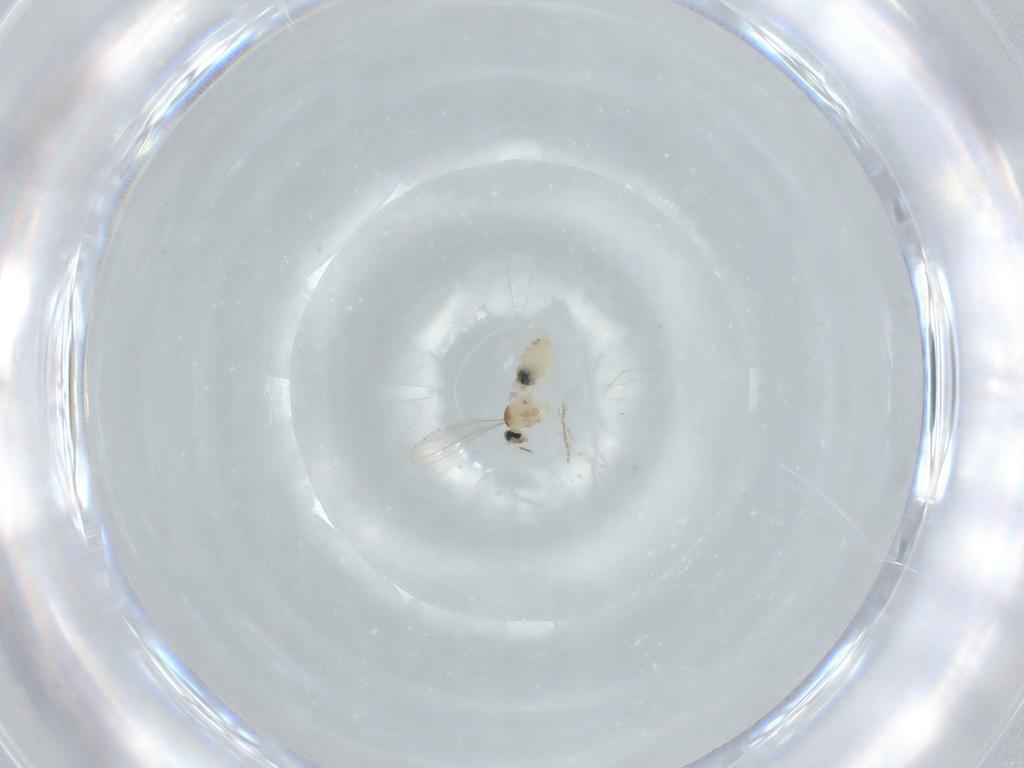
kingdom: Animalia
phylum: Arthropoda
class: Insecta
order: Diptera
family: Cecidomyiidae
